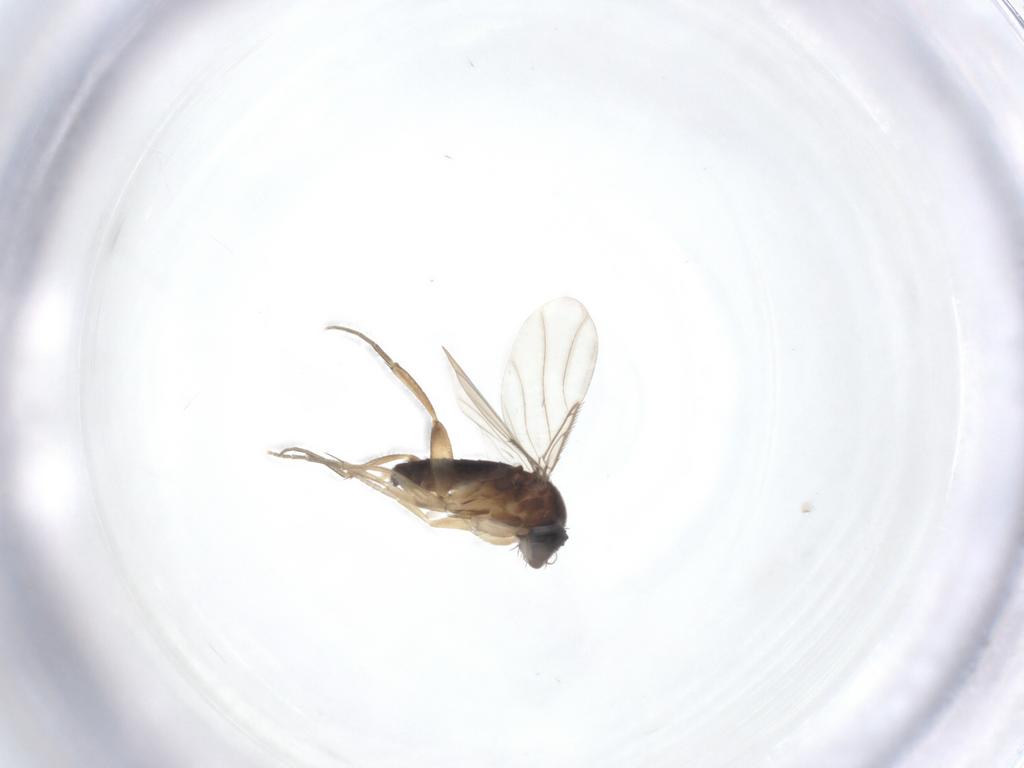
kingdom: Animalia
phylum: Arthropoda
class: Insecta
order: Diptera
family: Phoridae
